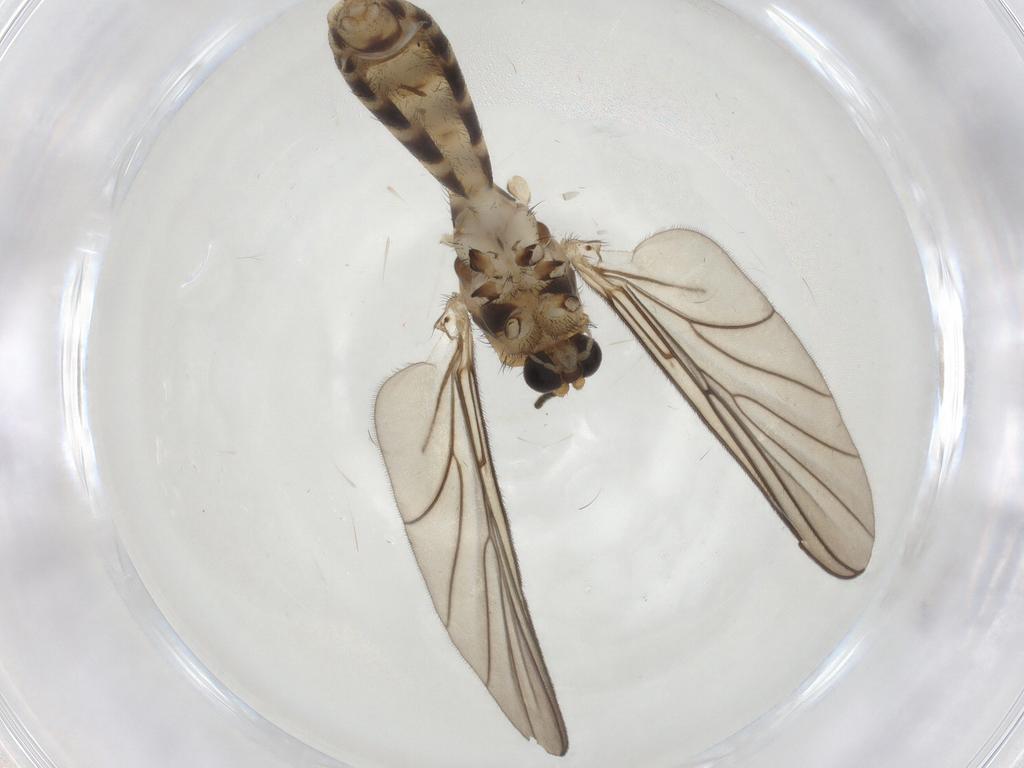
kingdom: Animalia
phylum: Arthropoda
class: Insecta
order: Diptera
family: Mycetophilidae
